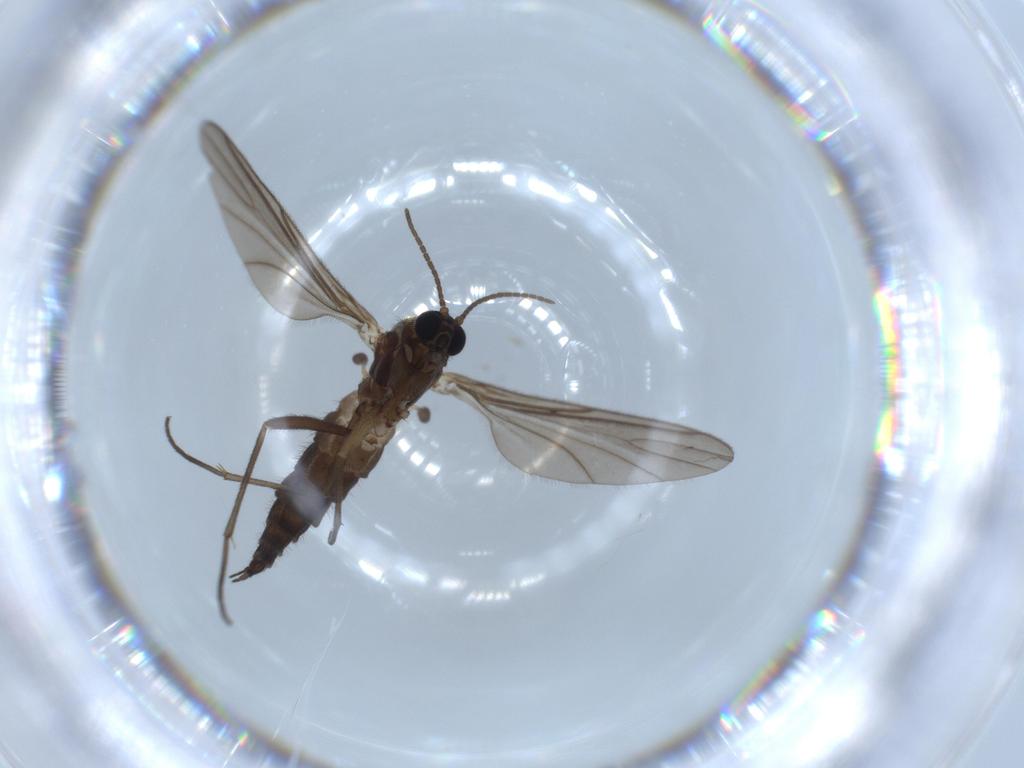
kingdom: Animalia
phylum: Arthropoda
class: Insecta
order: Diptera
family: Sciaridae
